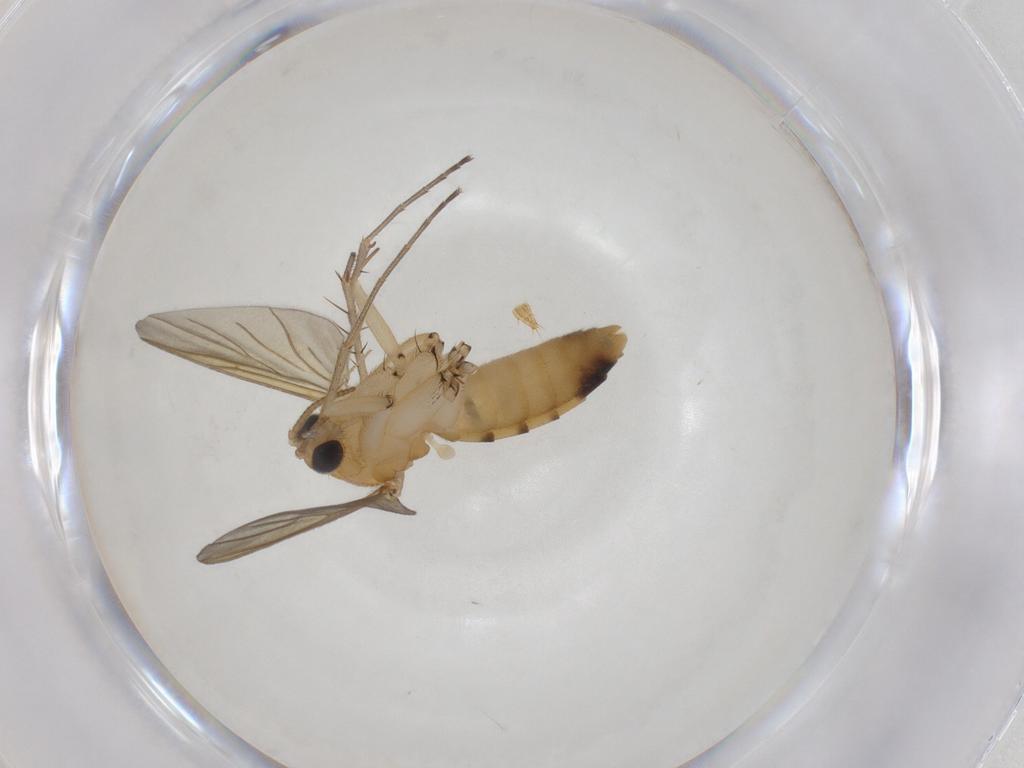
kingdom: Animalia
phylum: Arthropoda
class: Insecta
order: Diptera
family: Mycetophilidae
